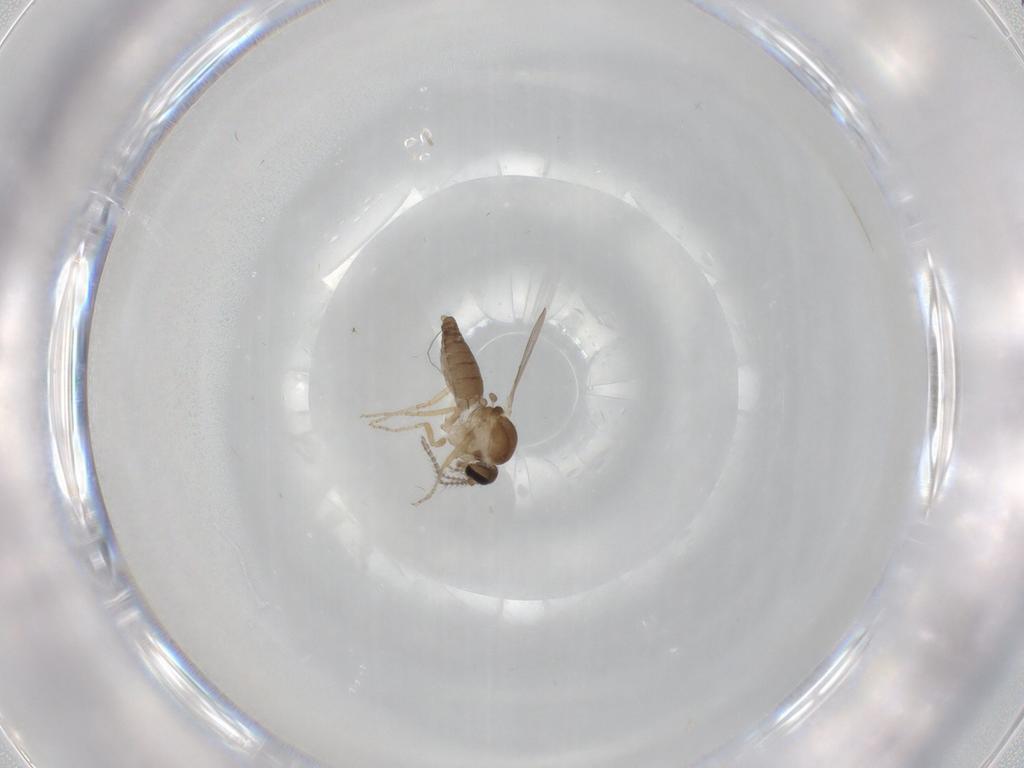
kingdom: Animalia
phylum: Arthropoda
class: Insecta
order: Diptera
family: Ceratopogonidae
